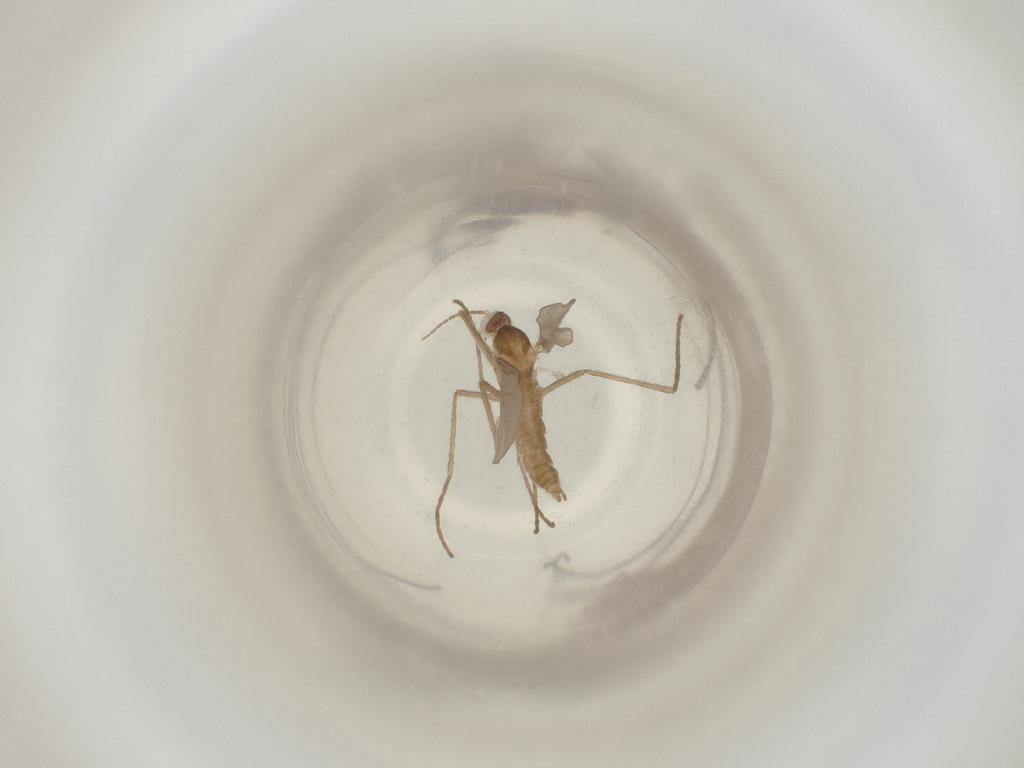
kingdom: Animalia
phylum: Arthropoda
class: Insecta
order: Diptera
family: Cecidomyiidae
